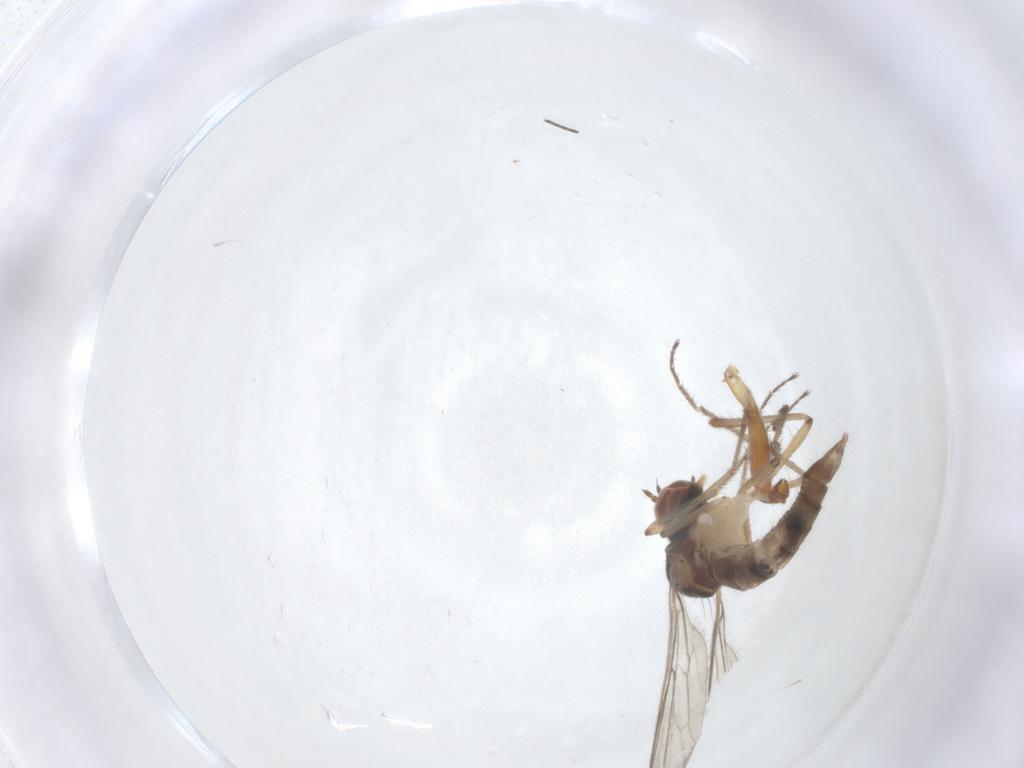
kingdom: Animalia
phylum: Arthropoda
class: Insecta
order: Diptera
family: Hybotidae
